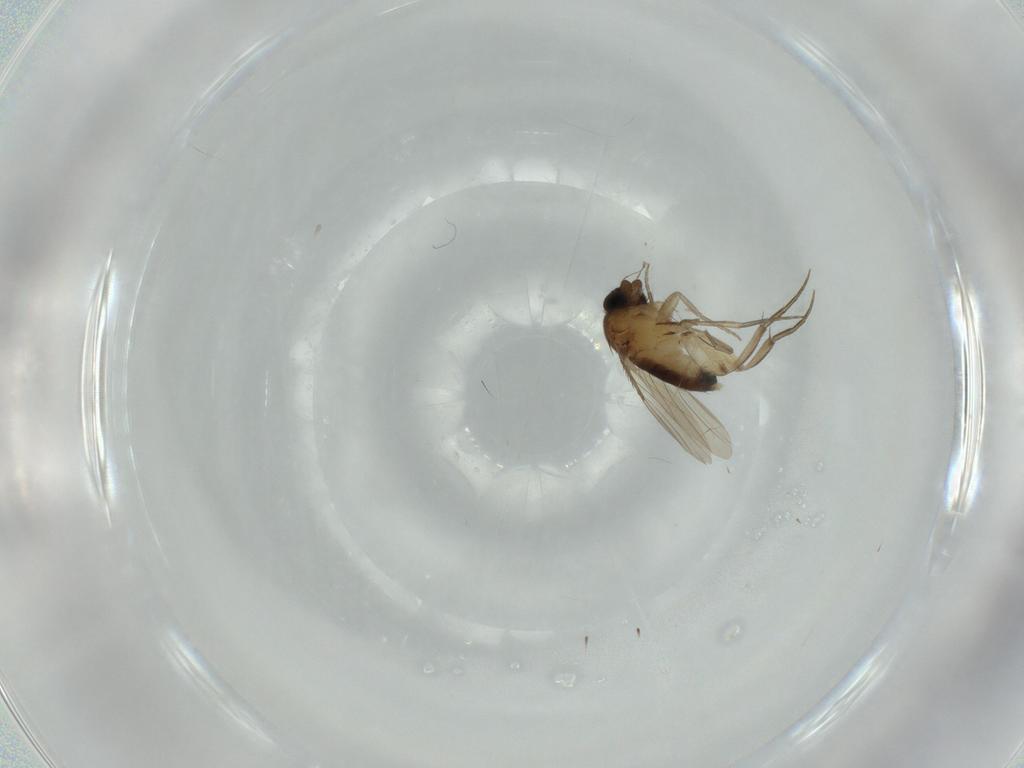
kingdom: Animalia
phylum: Arthropoda
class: Insecta
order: Diptera
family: Phoridae
